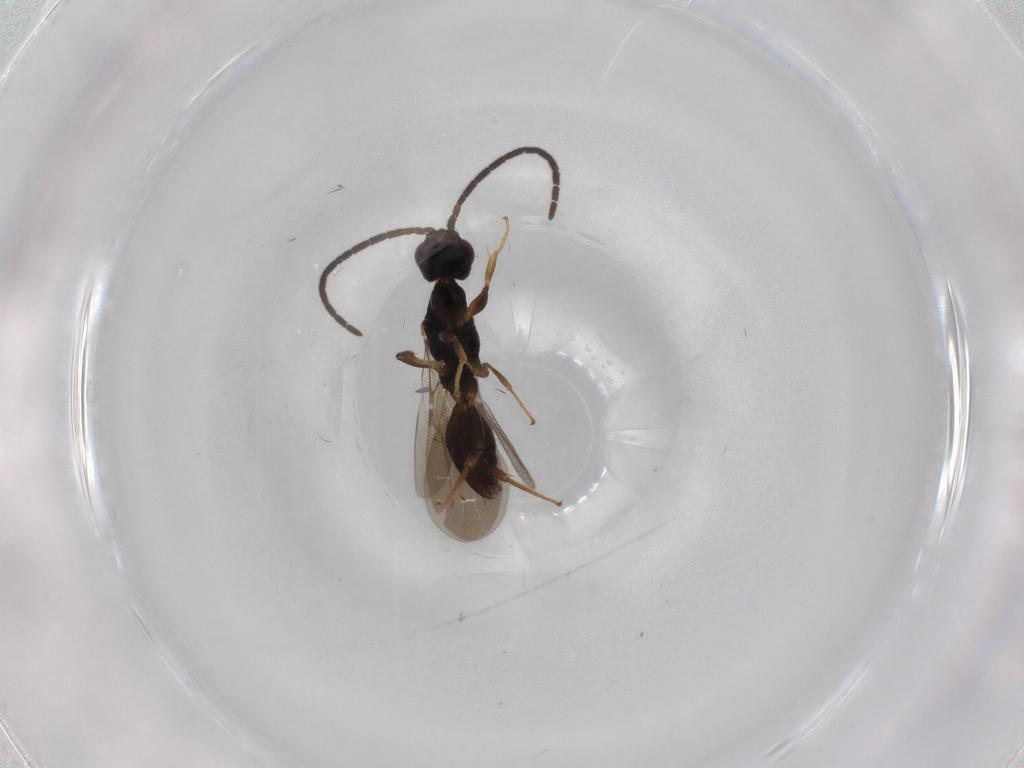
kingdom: Animalia
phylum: Arthropoda
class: Insecta
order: Hymenoptera
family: Bethylidae
